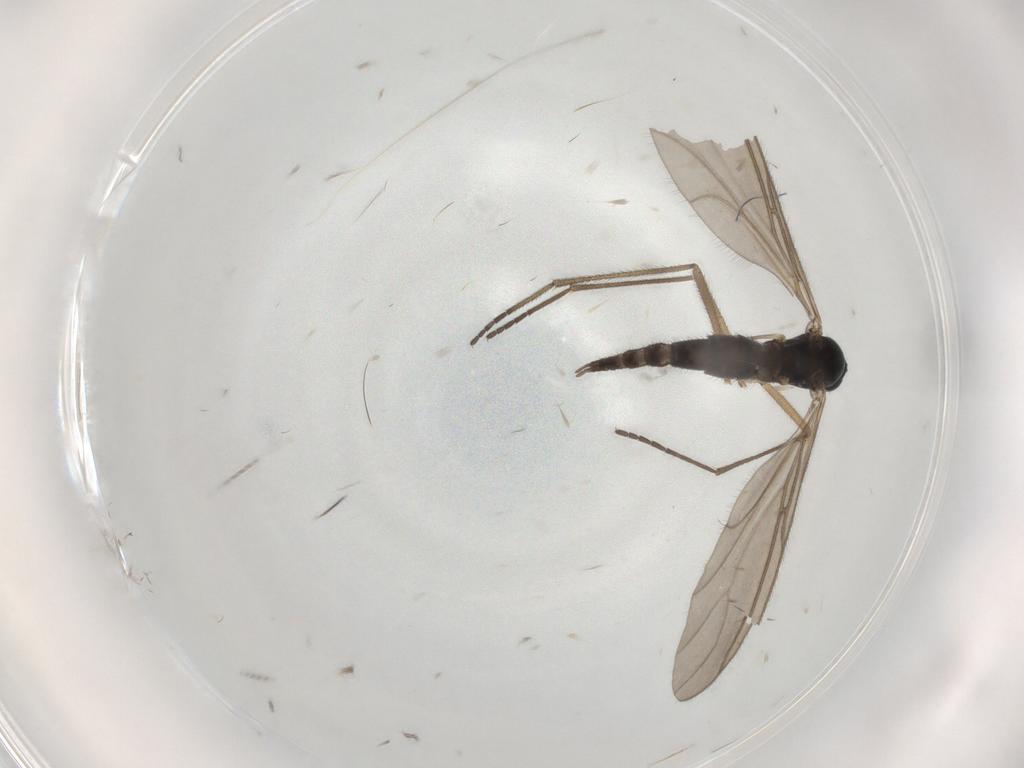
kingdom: Animalia
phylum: Arthropoda
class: Insecta
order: Diptera
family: Sciaridae
